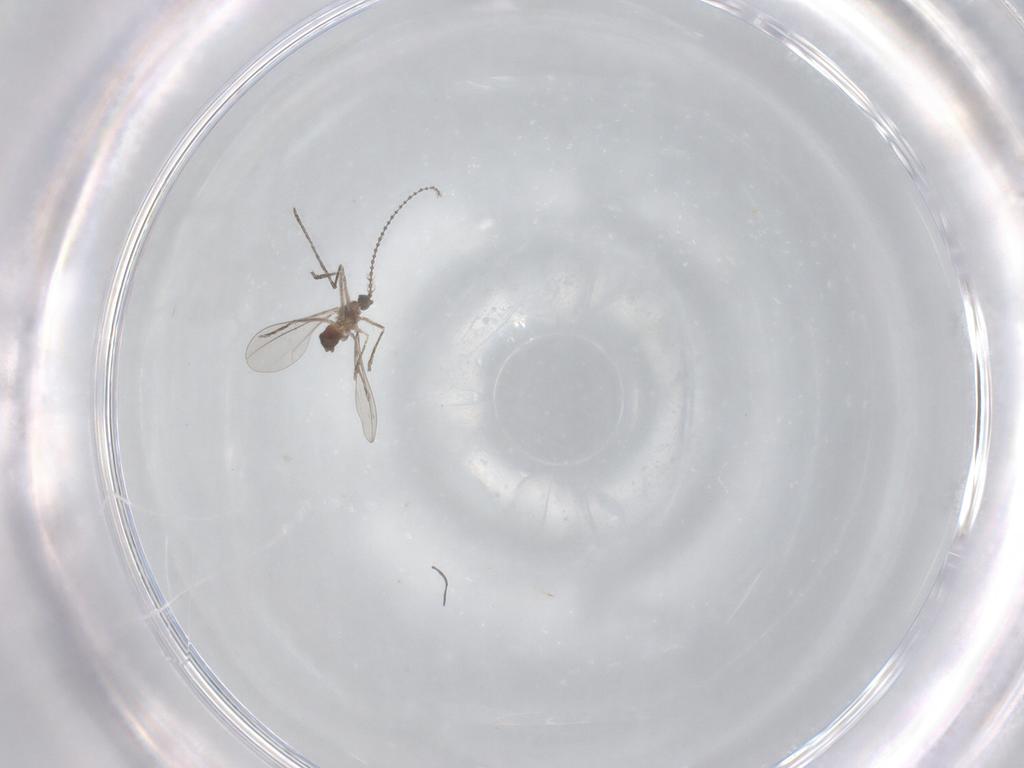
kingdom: Animalia
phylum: Arthropoda
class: Insecta
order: Diptera
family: Cecidomyiidae
